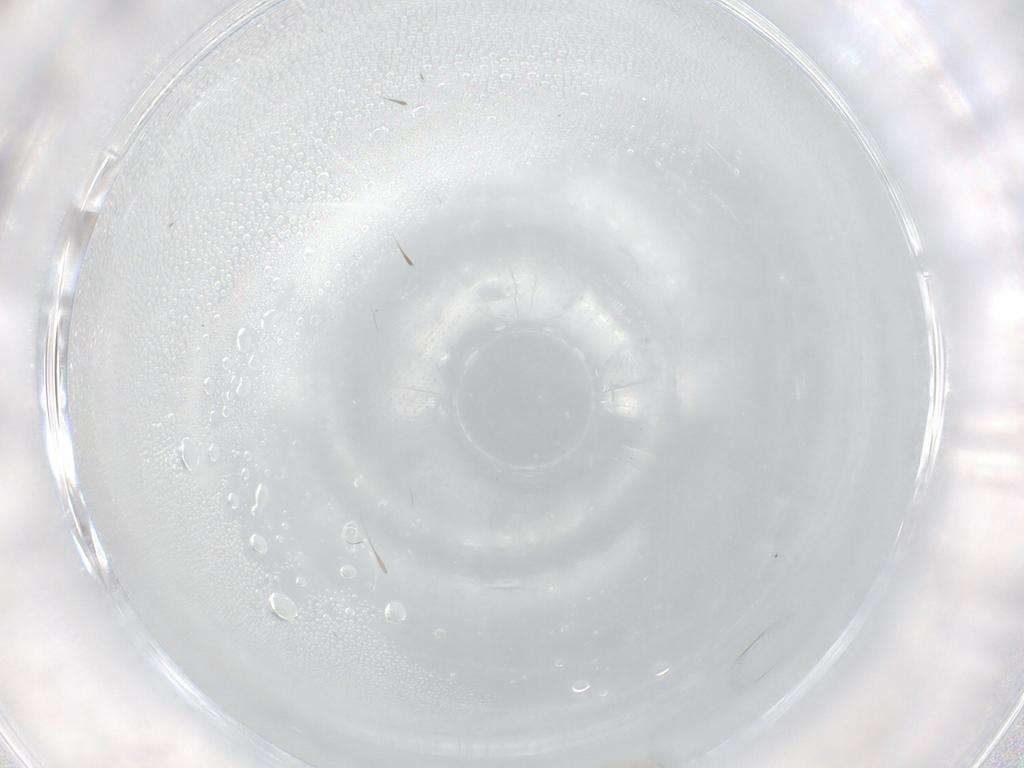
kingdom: Animalia
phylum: Arthropoda
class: Insecta
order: Diptera
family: Cecidomyiidae
